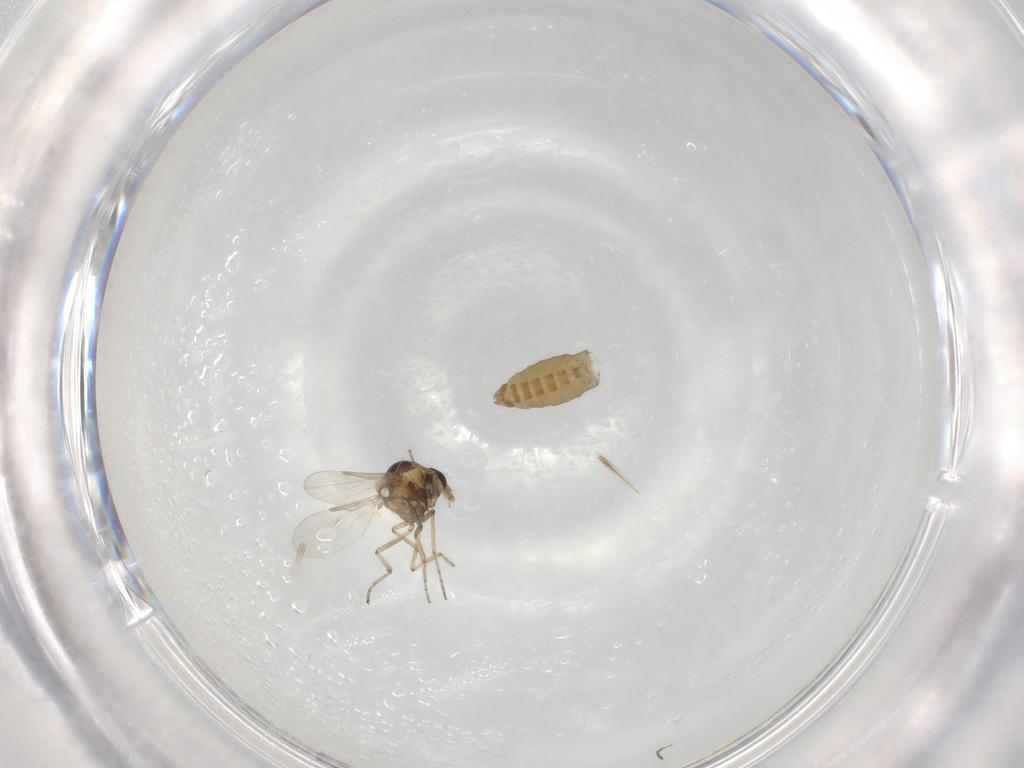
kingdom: Animalia
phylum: Arthropoda
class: Insecta
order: Diptera
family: Ceratopogonidae
